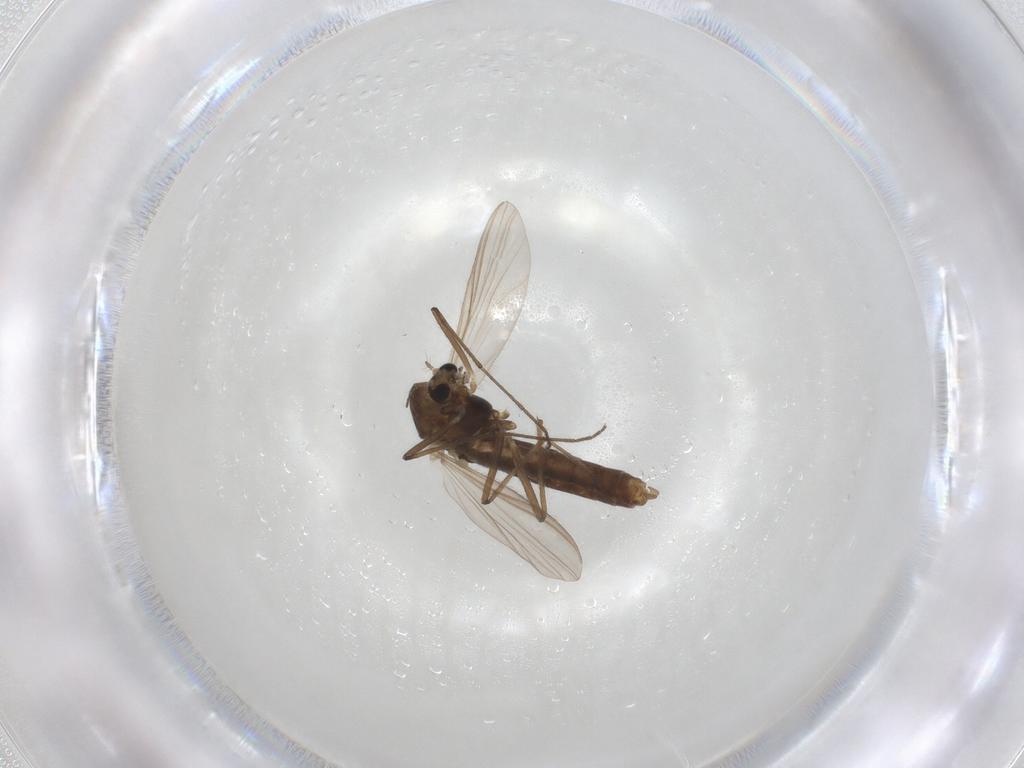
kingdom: Animalia
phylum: Arthropoda
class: Insecta
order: Diptera
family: Chironomidae
